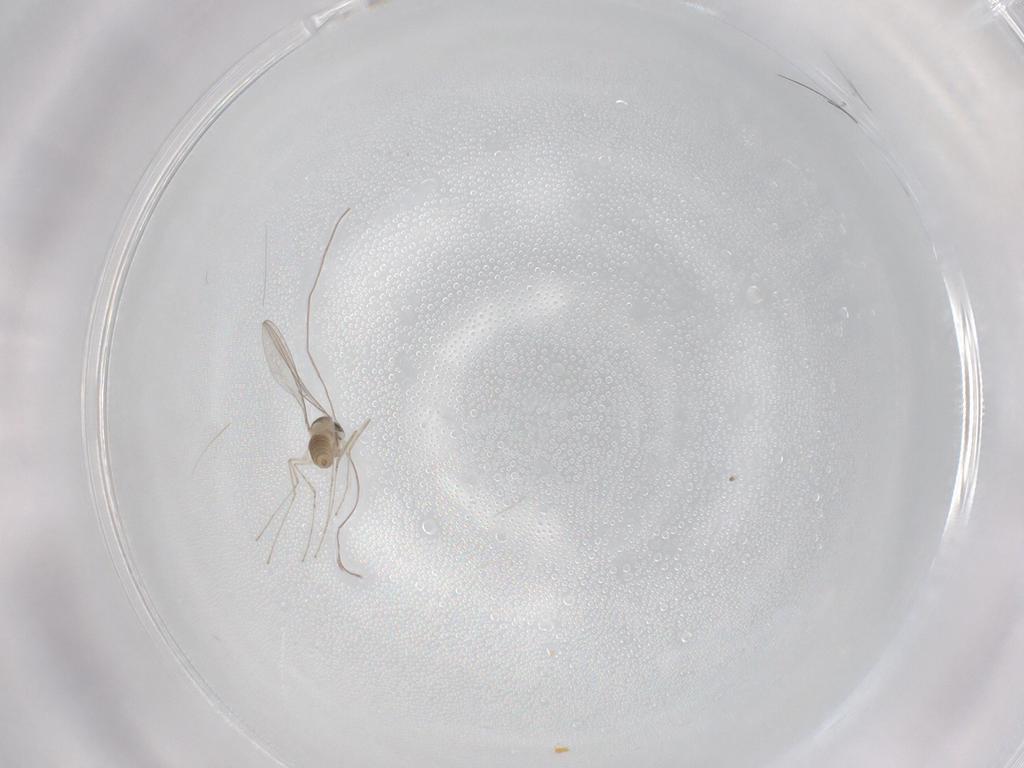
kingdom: Animalia
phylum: Arthropoda
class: Insecta
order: Diptera
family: Cecidomyiidae
